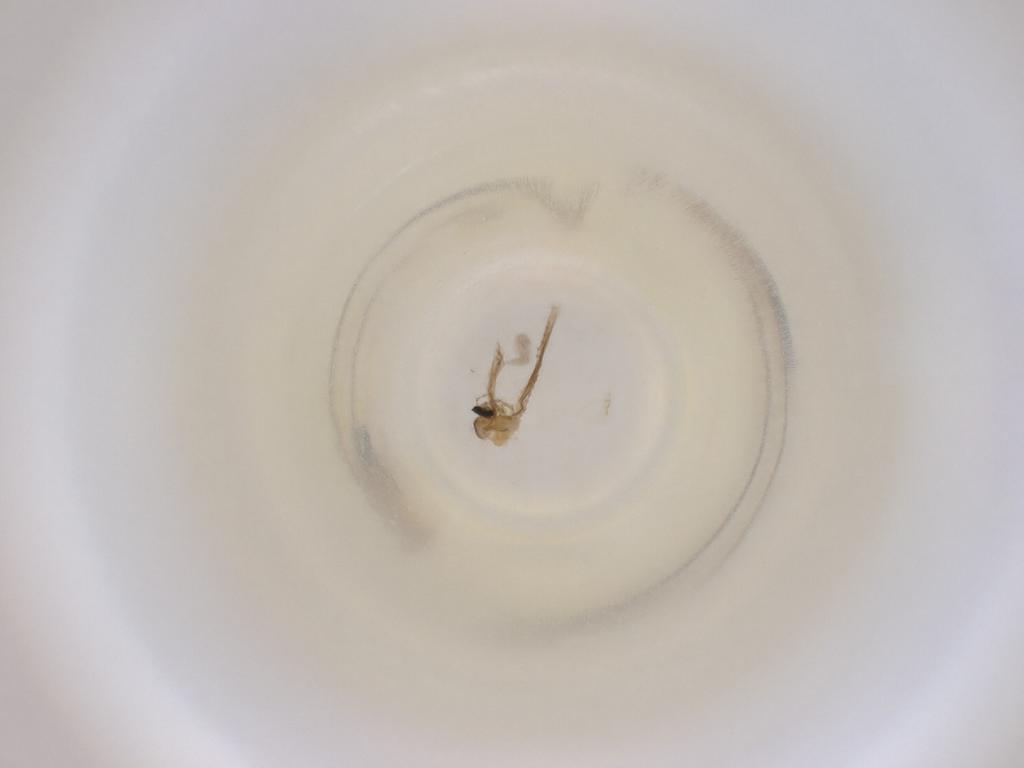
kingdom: Animalia
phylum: Arthropoda
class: Insecta
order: Diptera
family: Cecidomyiidae
